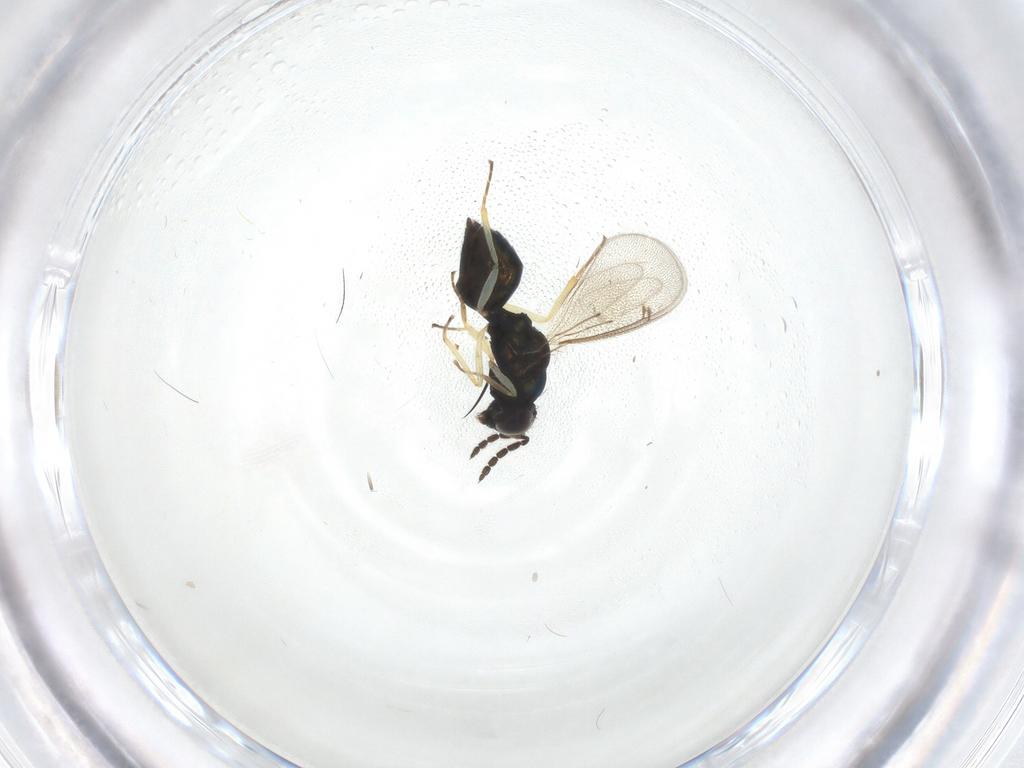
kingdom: Animalia
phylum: Arthropoda
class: Insecta
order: Hymenoptera
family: Eulophidae
